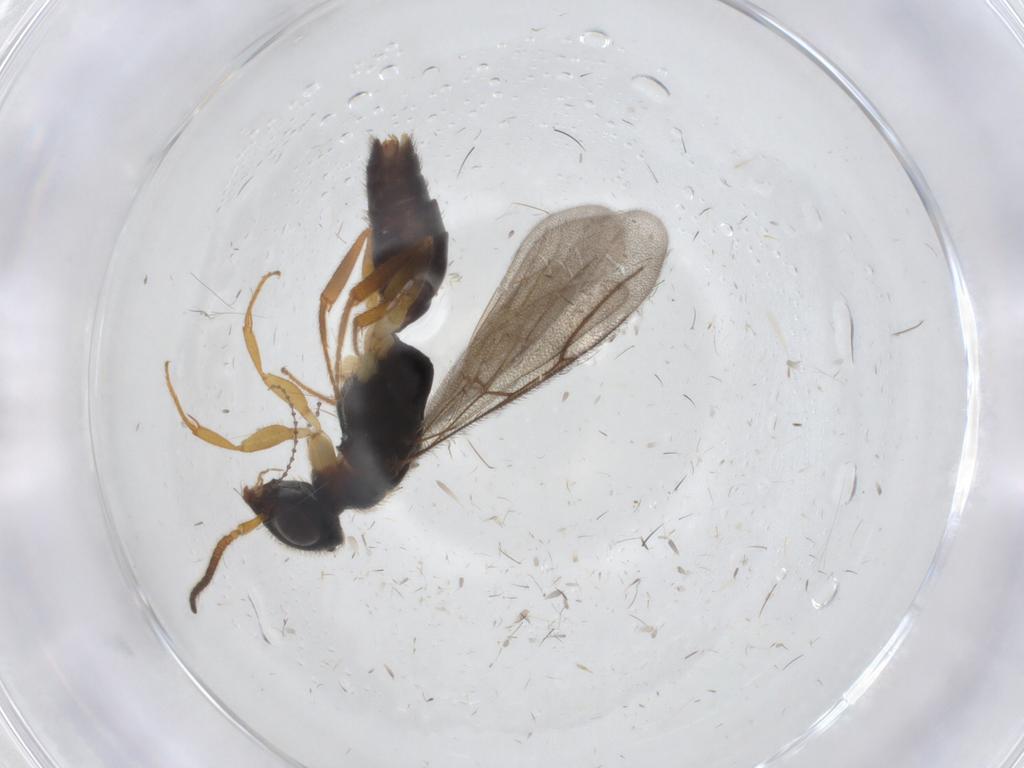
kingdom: Animalia
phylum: Arthropoda
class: Insecta
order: Hymenoptera
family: Bethylidae
